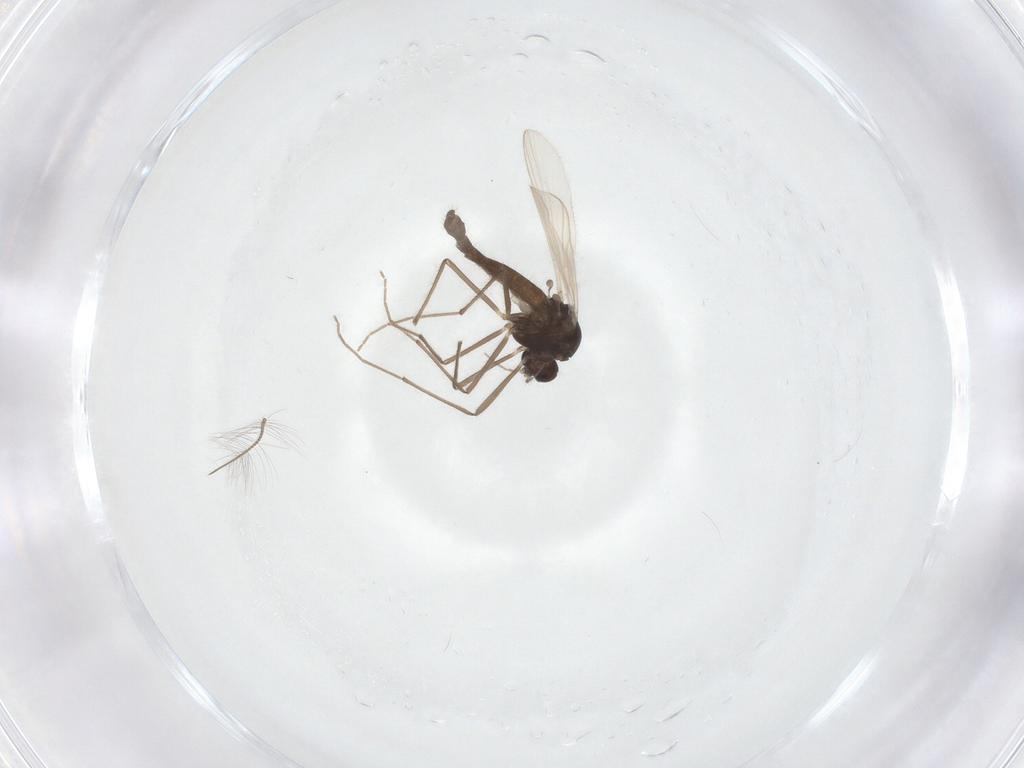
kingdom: Animalia
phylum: Arthropoda
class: Insecta
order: Diptera
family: Chironomidae
